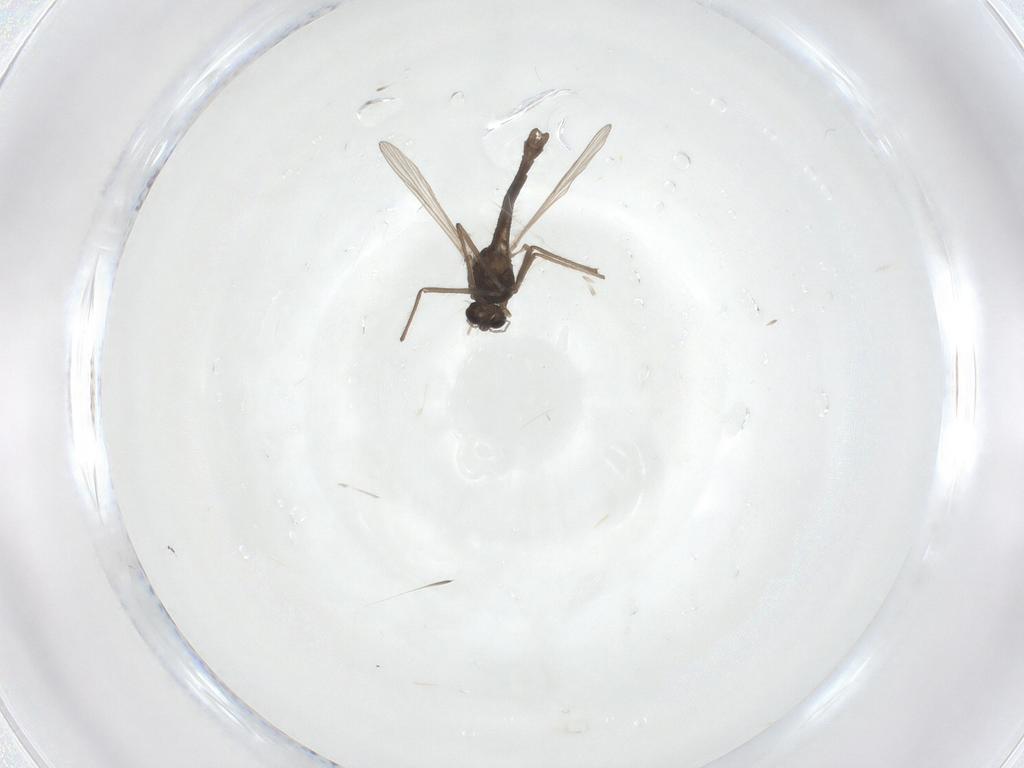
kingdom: Animalia
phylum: Arthropoda
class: Insecta
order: Diptera
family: Chironomidae
